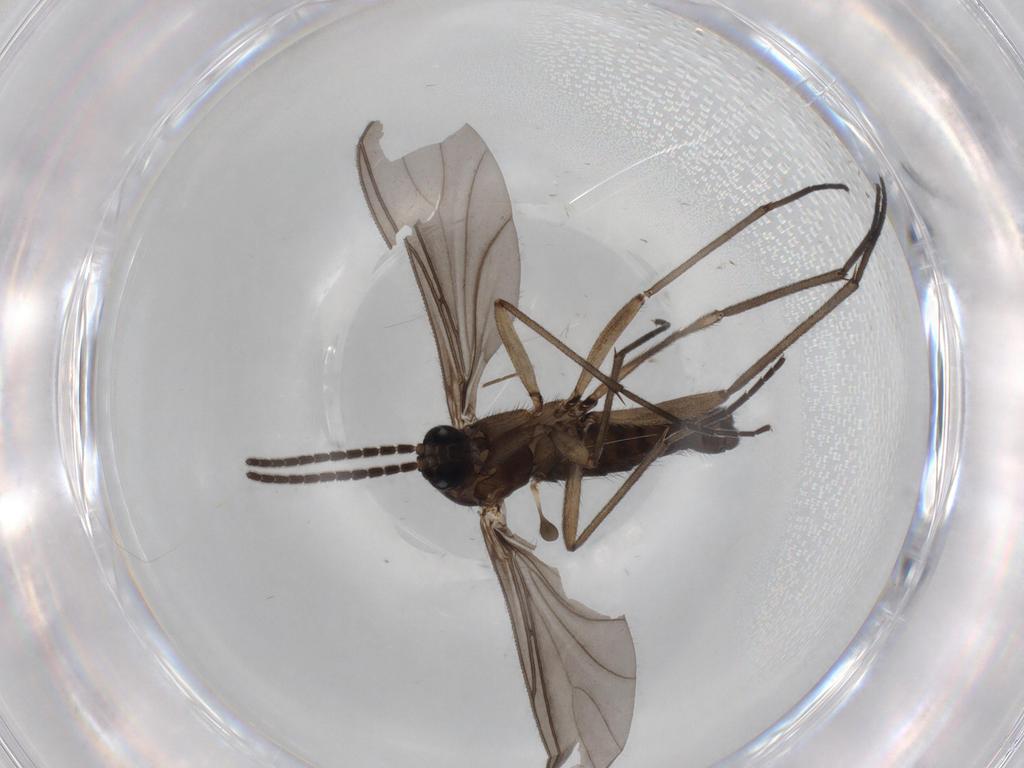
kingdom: Animalia
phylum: Arthropoda
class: Insecta
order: Diptera
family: Sciaridae
